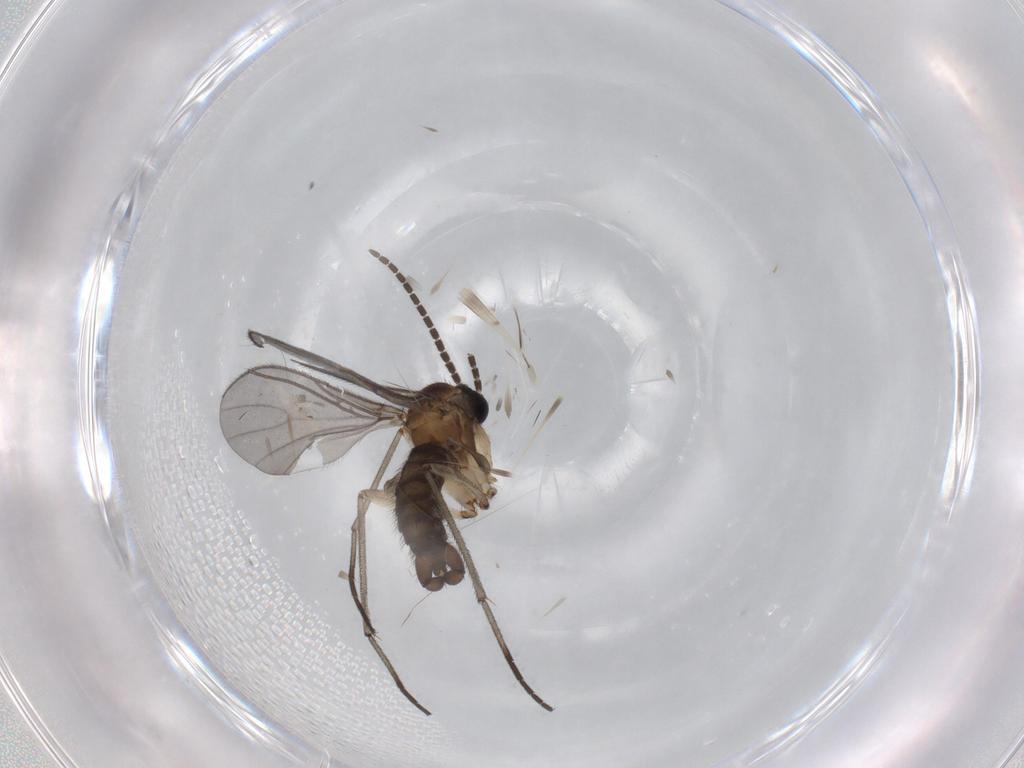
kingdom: Animalia
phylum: Arthropoda
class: Insecta
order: Diptera
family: Sciaridae
